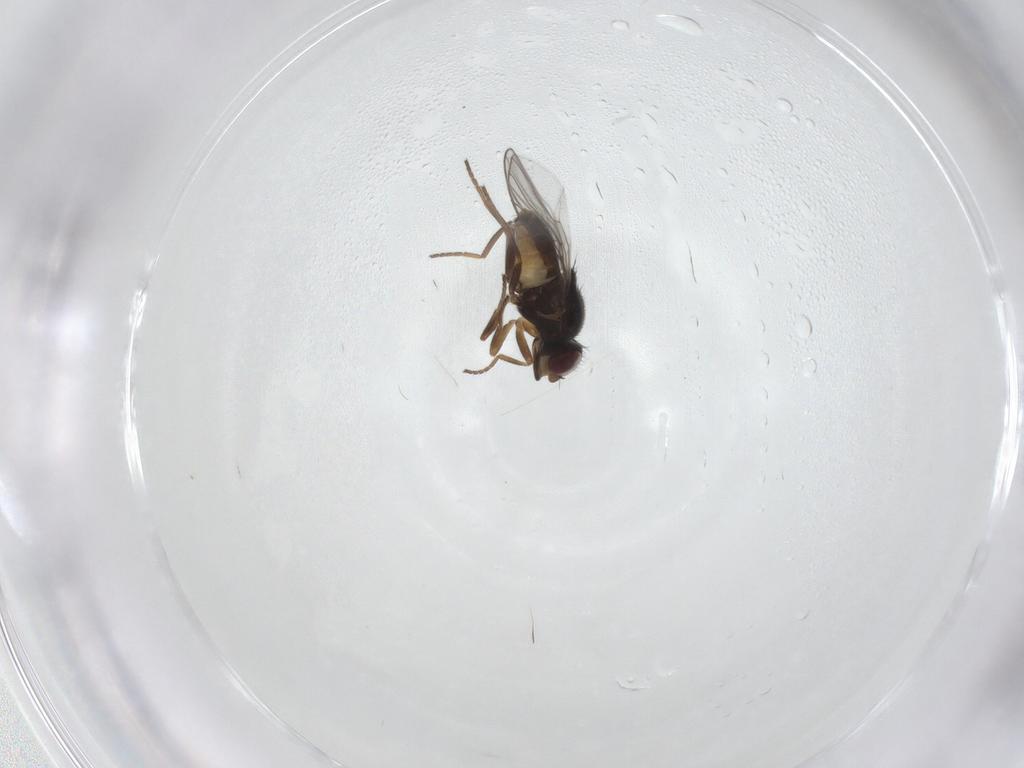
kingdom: Animalia
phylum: Arthropoda
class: Insecta
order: Diptera
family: Chloropidae
